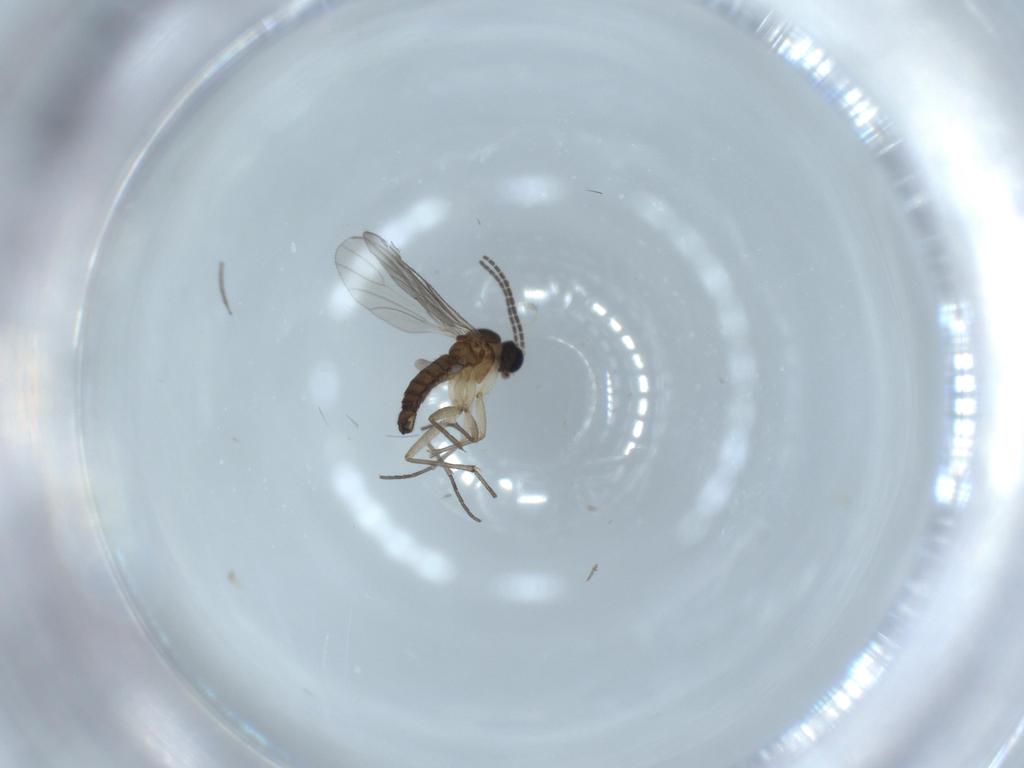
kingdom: Animalia
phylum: Arthropoda
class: Insecta
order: Diptera
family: Sciaridae
